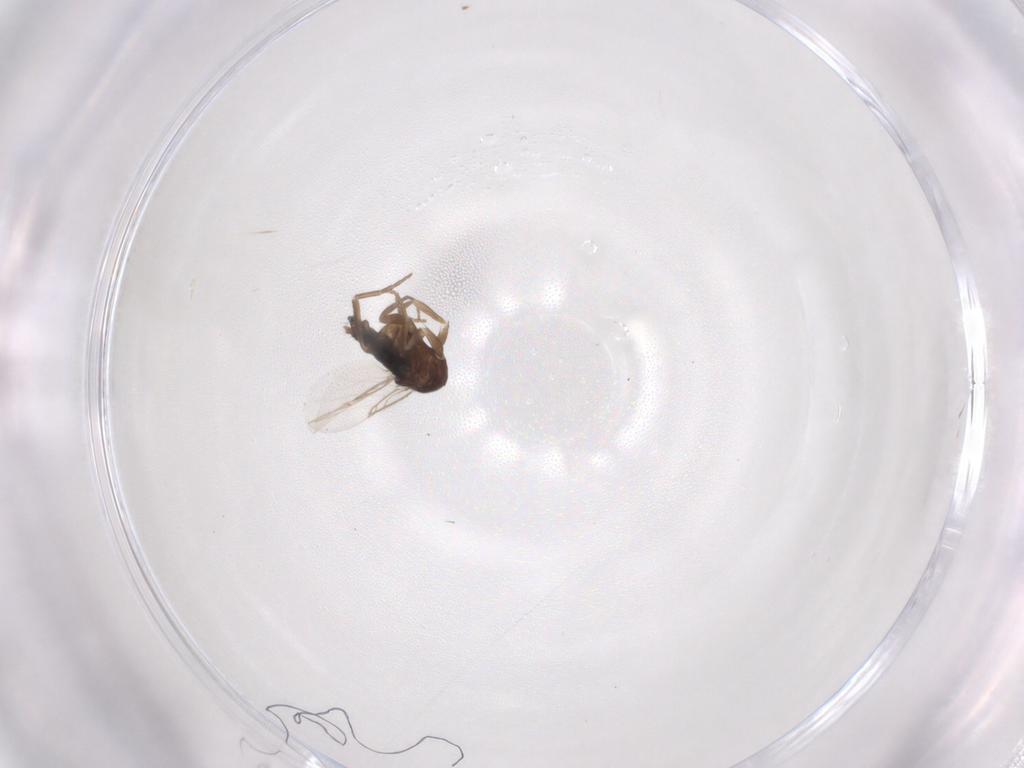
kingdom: Animalia
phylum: Arthropoda
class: Insecta
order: Diptera
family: Phoridae
